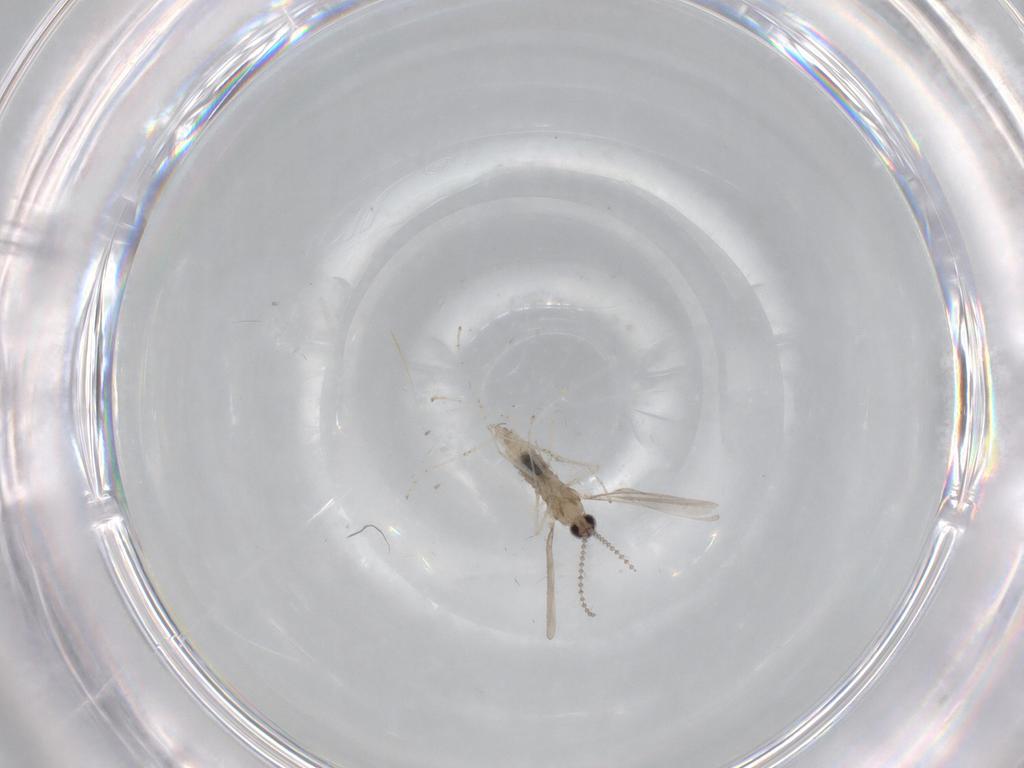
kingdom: Animalia
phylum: Arthropoda
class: Insecta
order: Diptera
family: Cecidomyiidae
